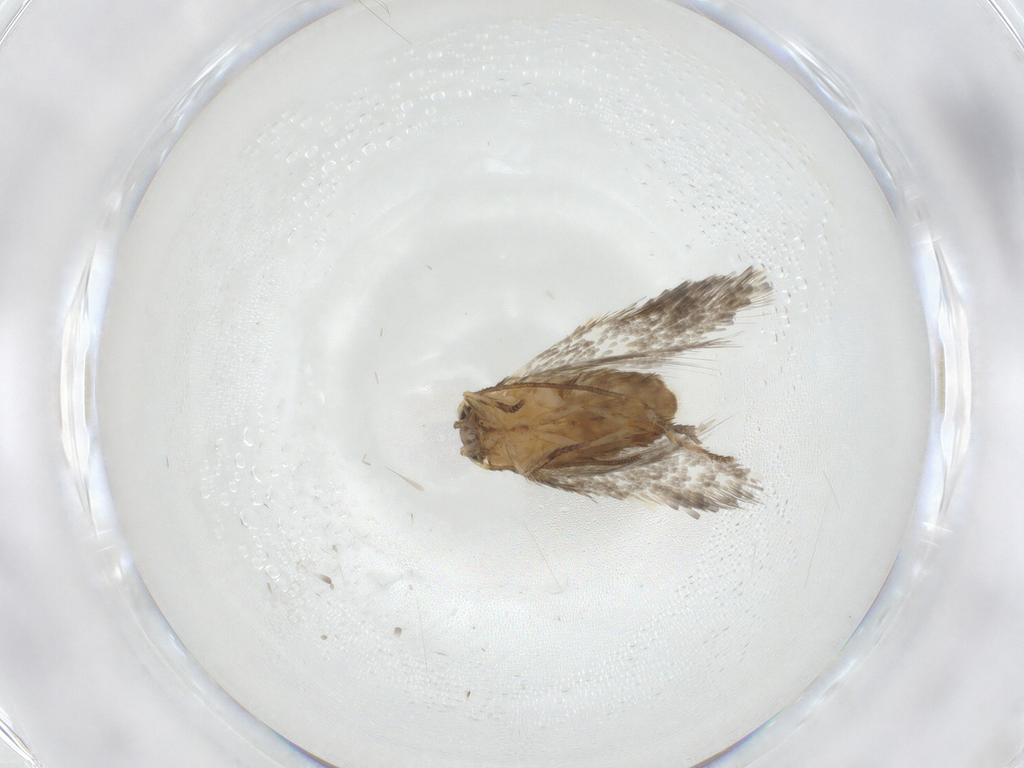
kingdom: Animalia
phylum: Arthropoda
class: Insecta
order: Lepidoptera
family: Nepticulidae
